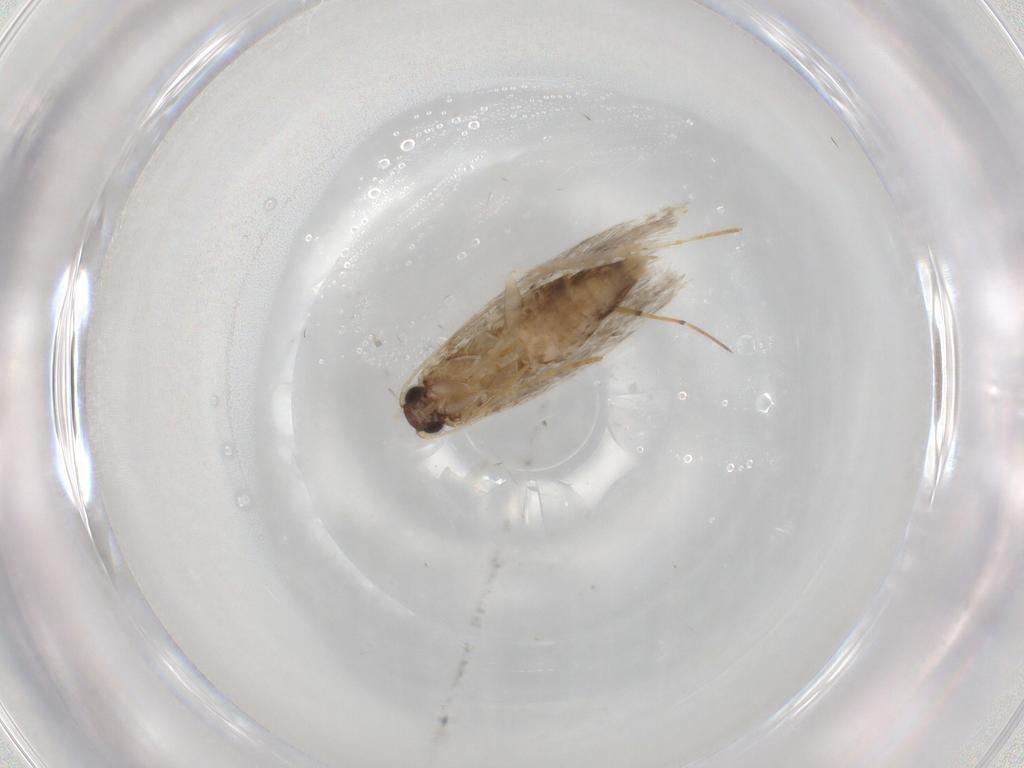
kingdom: Animalia
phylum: Arthropoda
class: Insecta
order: Lepidoptera
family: Tineidae
